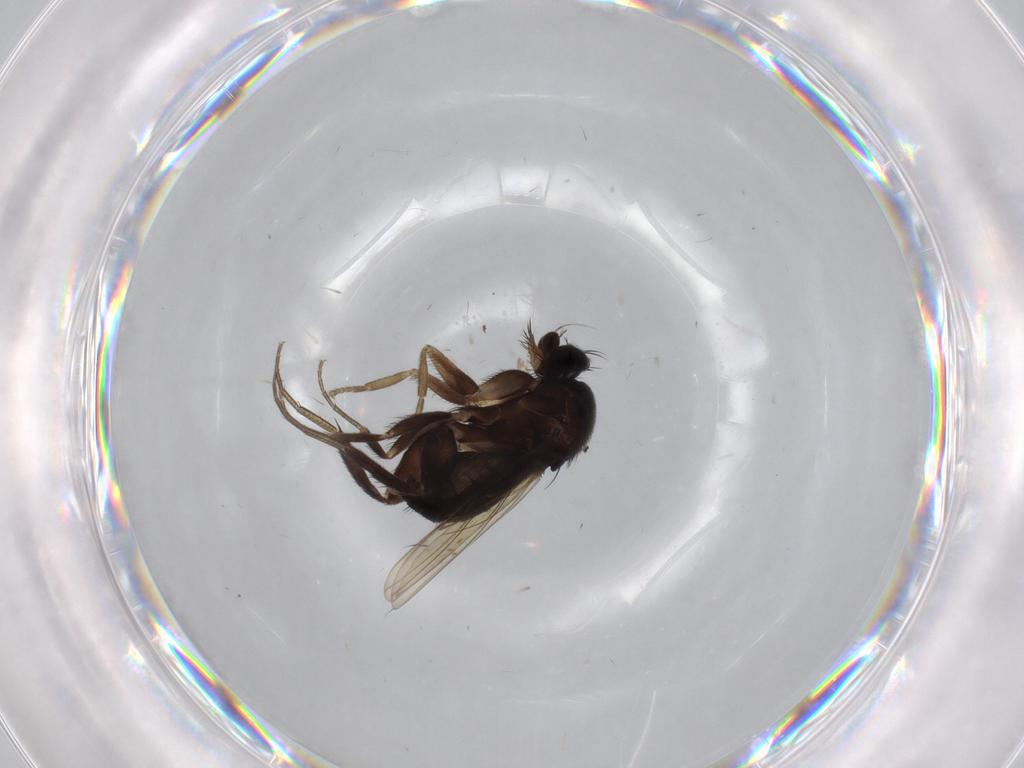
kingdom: Animalia
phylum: Arthropoda
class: Insecta
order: Diptera
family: Phoridae
